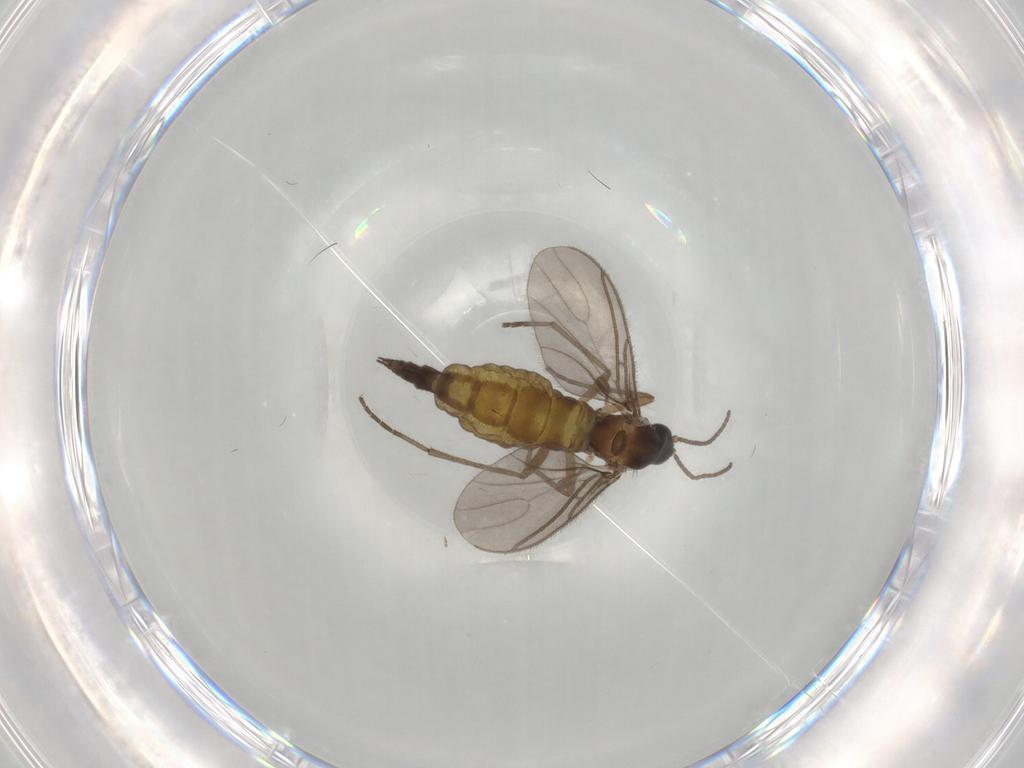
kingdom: Animalia
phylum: Arthropoda
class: Insecta
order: Diptera
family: Sciaridae
